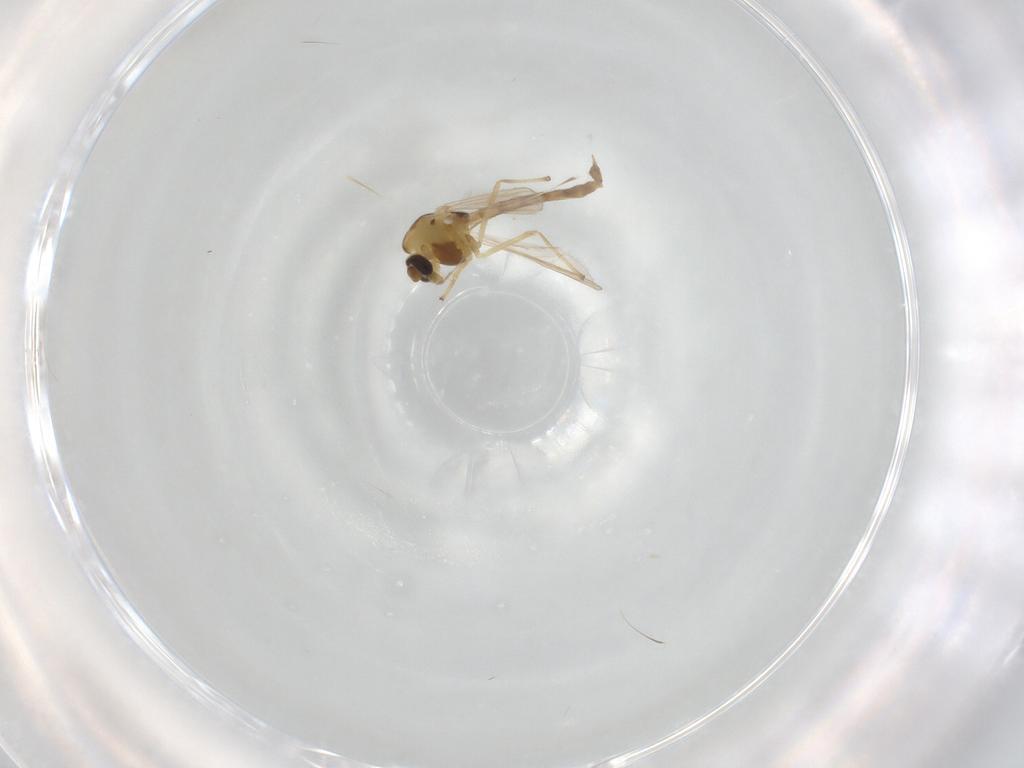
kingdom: Animalia
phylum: Arthropoda
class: Insecta
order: Diptera
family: Chironomidae
